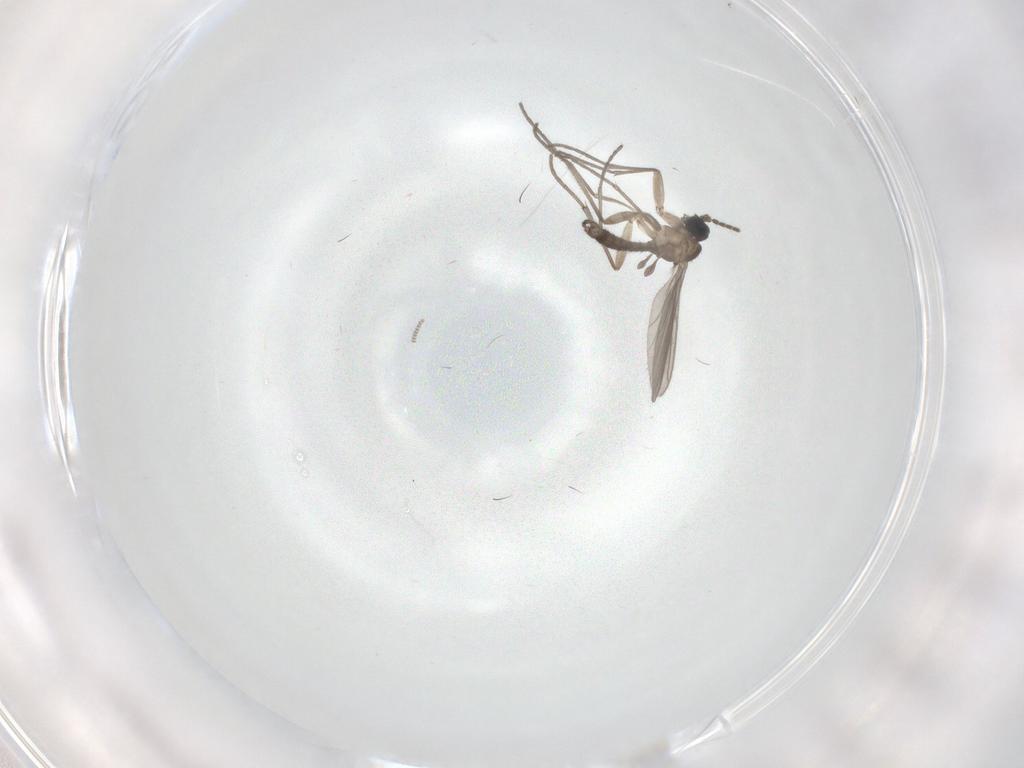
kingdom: Animalia
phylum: Arthropoda
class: Insecta
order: Diptera
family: Sciaridae
